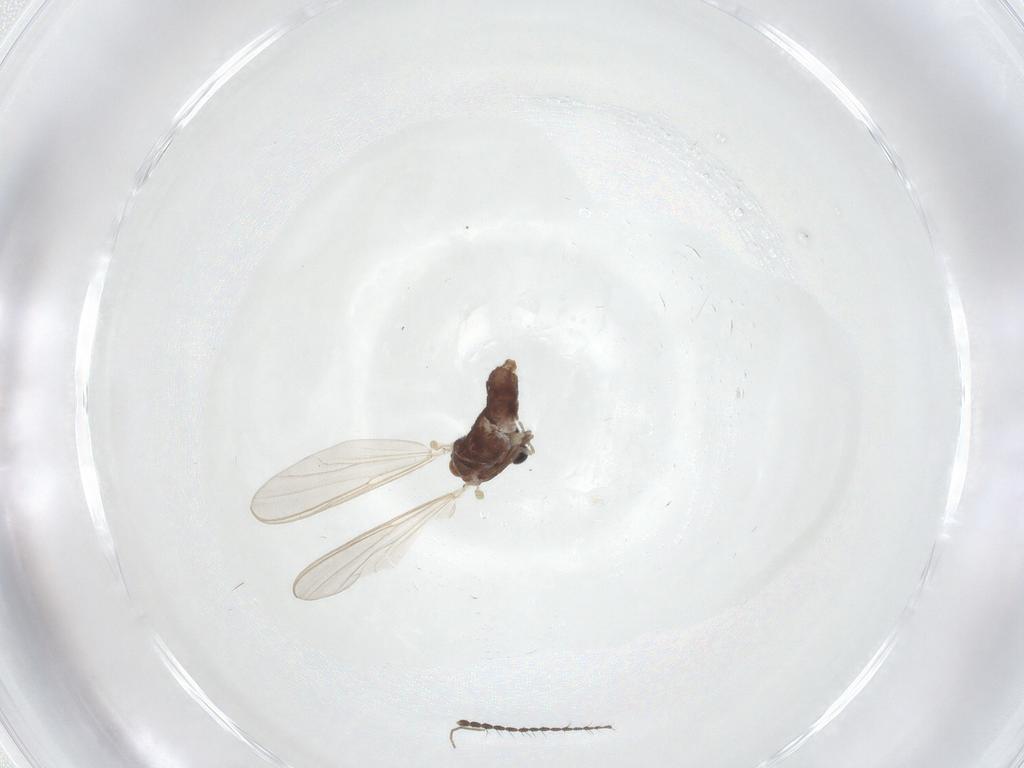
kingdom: Animalia
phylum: Arthropoda
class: Insecta
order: Diptera
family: Chironomidae
